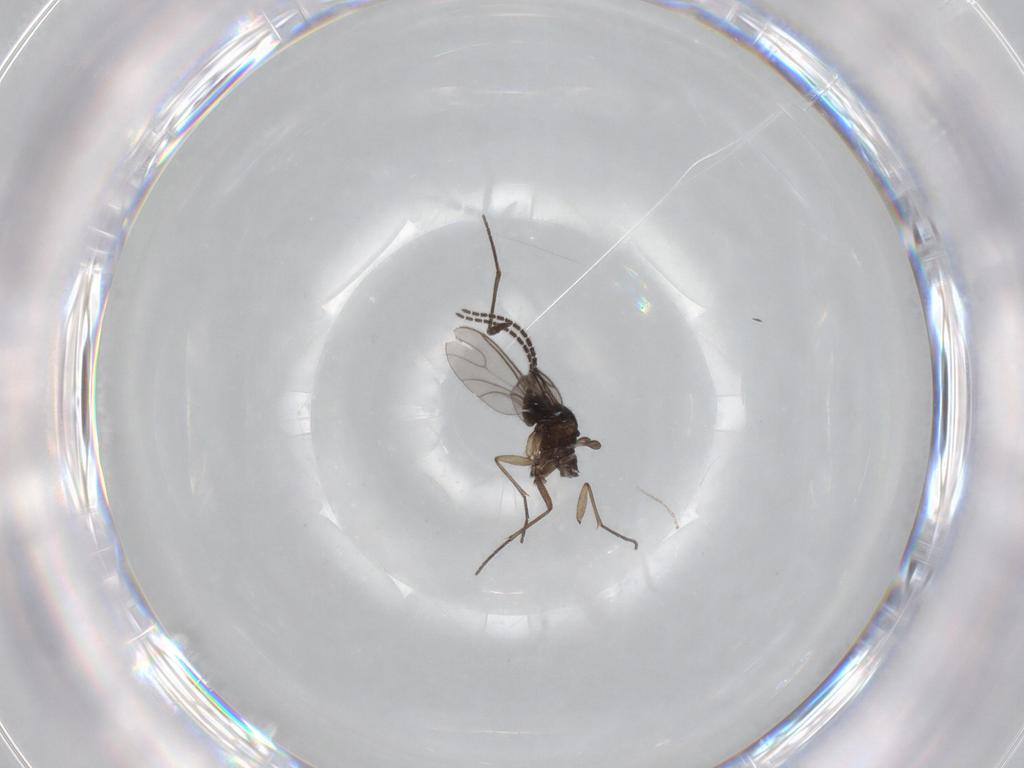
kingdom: Animalia
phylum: Arthropoda
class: Insecta
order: Diptera
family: Sciaridae
